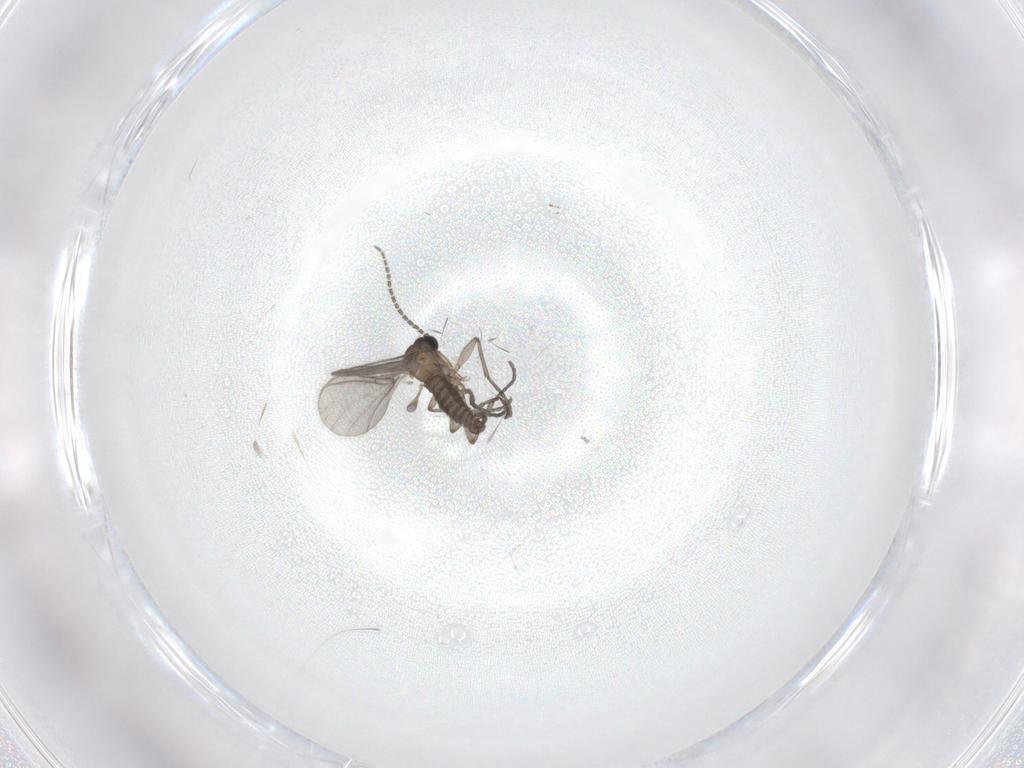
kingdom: Animalia
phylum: Arthropoda
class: Insecta
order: Diptera
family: Sciaridae
